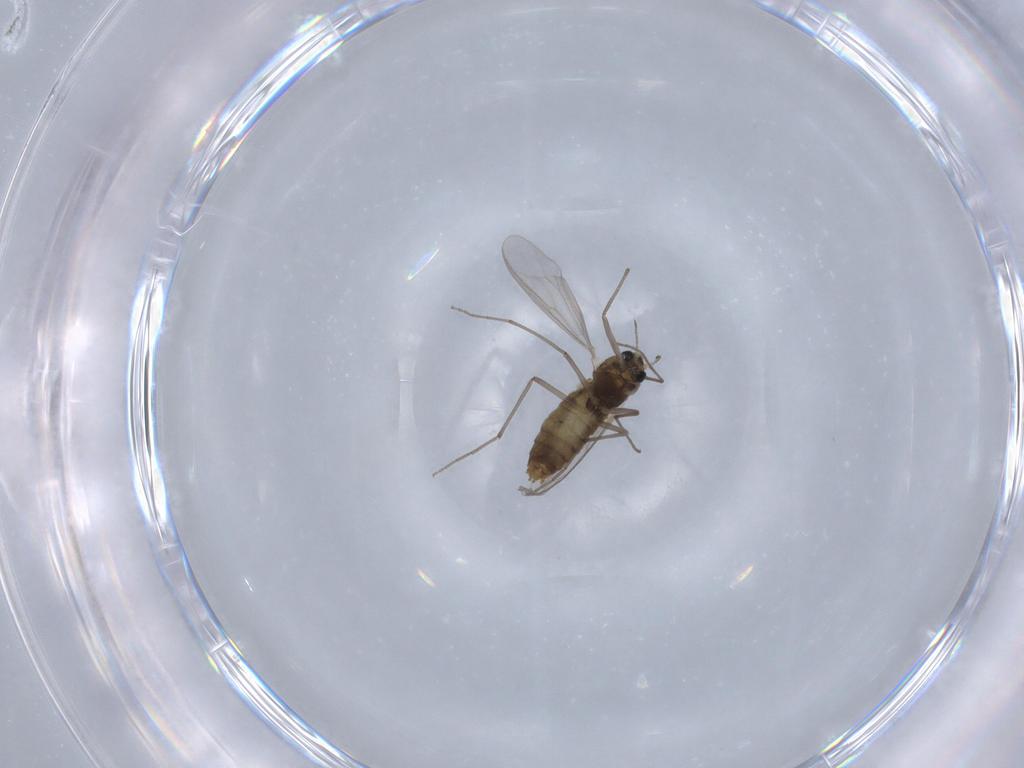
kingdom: Animalia
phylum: Arthropoda
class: Insecta
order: Diptera
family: Chironomidae
